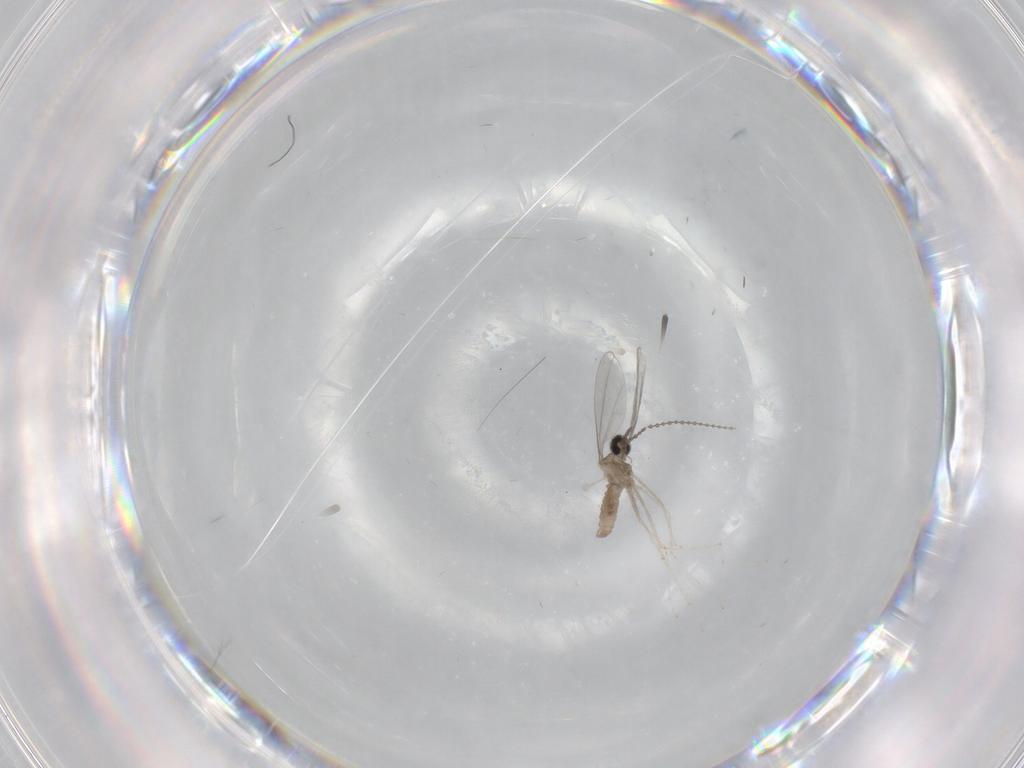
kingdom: Animalia
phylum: Arthropoda
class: Insecta
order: Diptera
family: Cecidomyiidae
